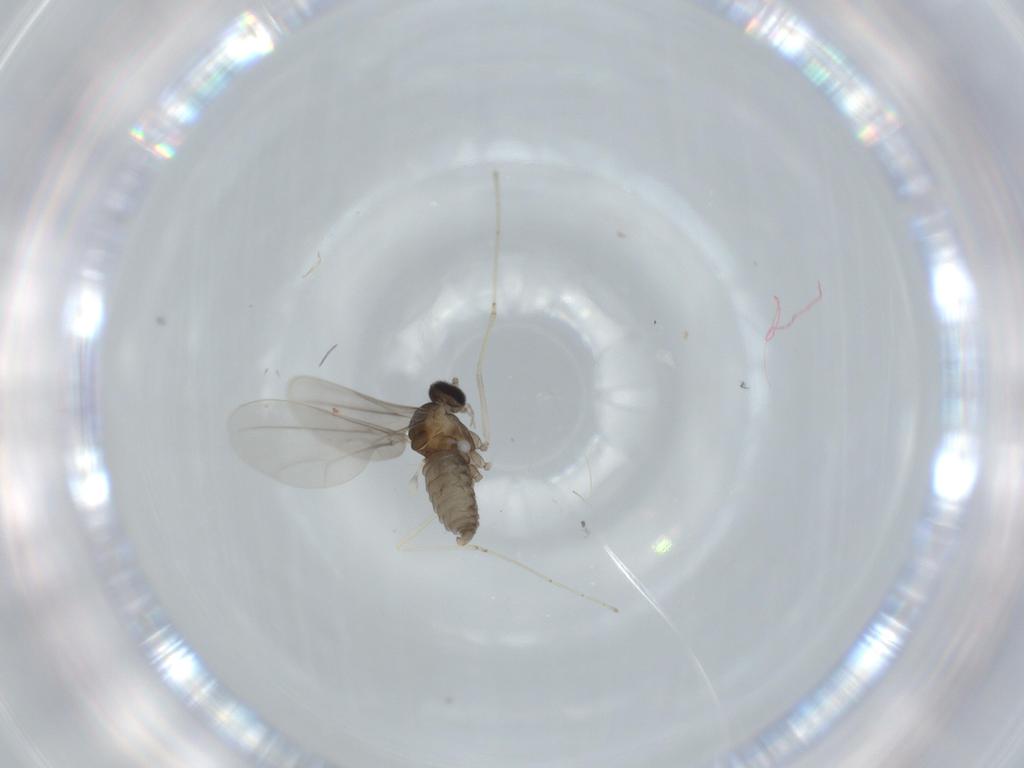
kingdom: Animalia
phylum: Arthropoda
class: Insecta
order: Diptera
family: Cecidomyiidae
